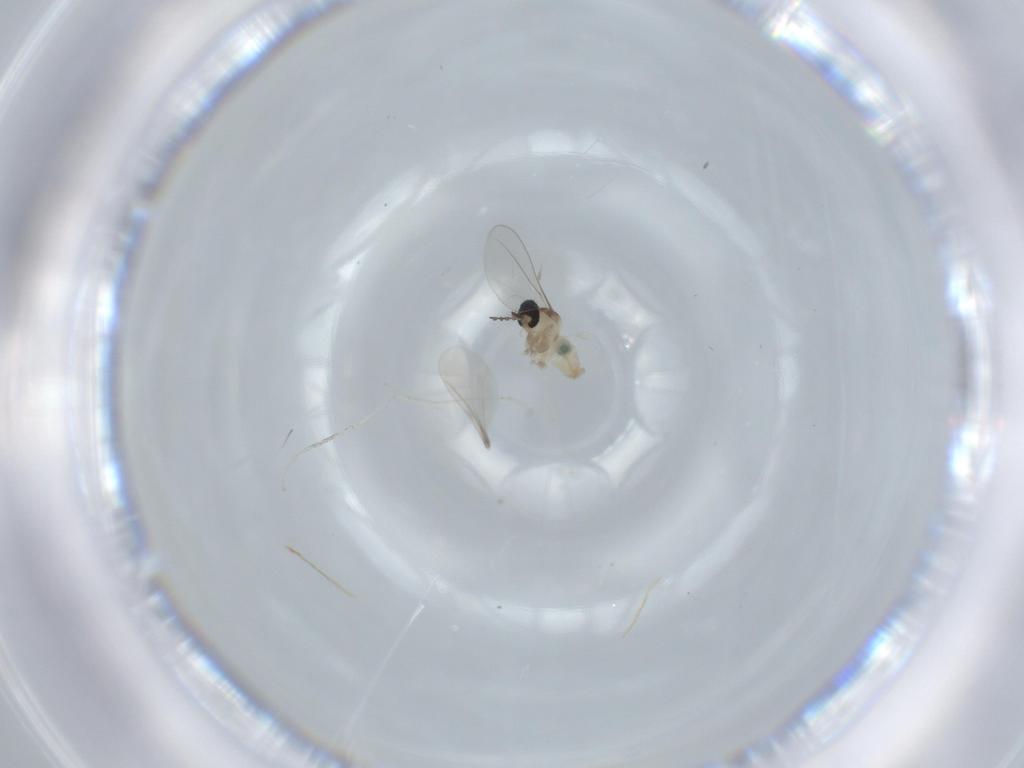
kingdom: Animalia
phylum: Arthropoda
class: Insecta
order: Diptera
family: Cecidomyiidae
